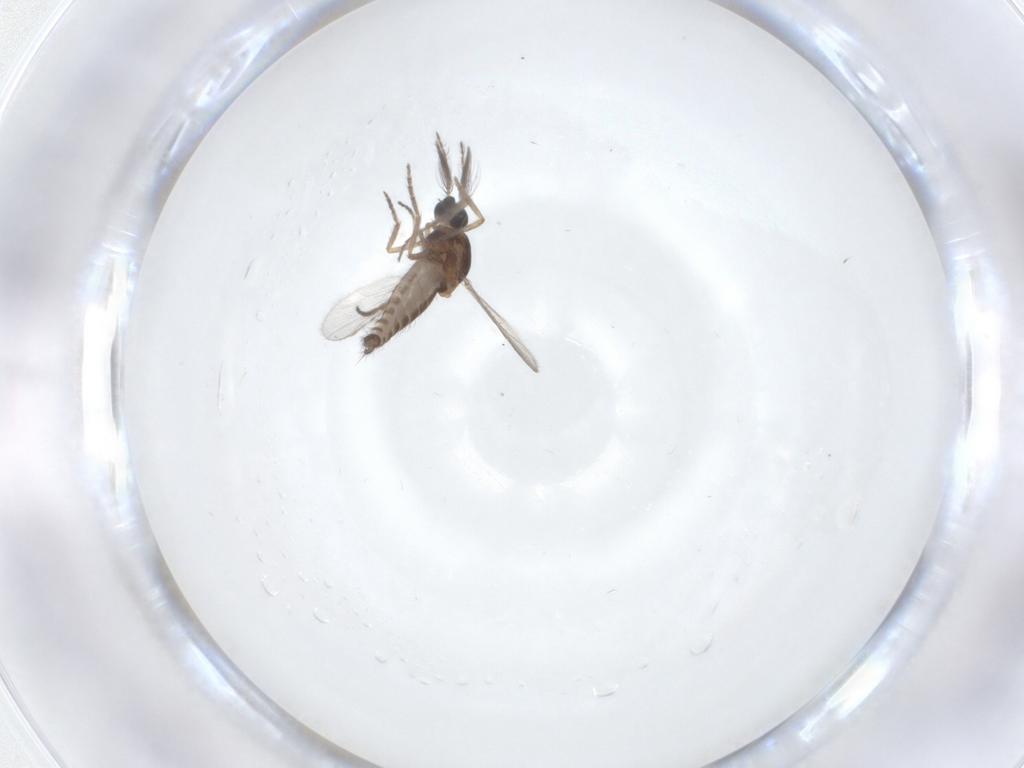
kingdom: Animalia
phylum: Arthropoda
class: Insecta
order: Diptera
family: Ceratopogonidae
